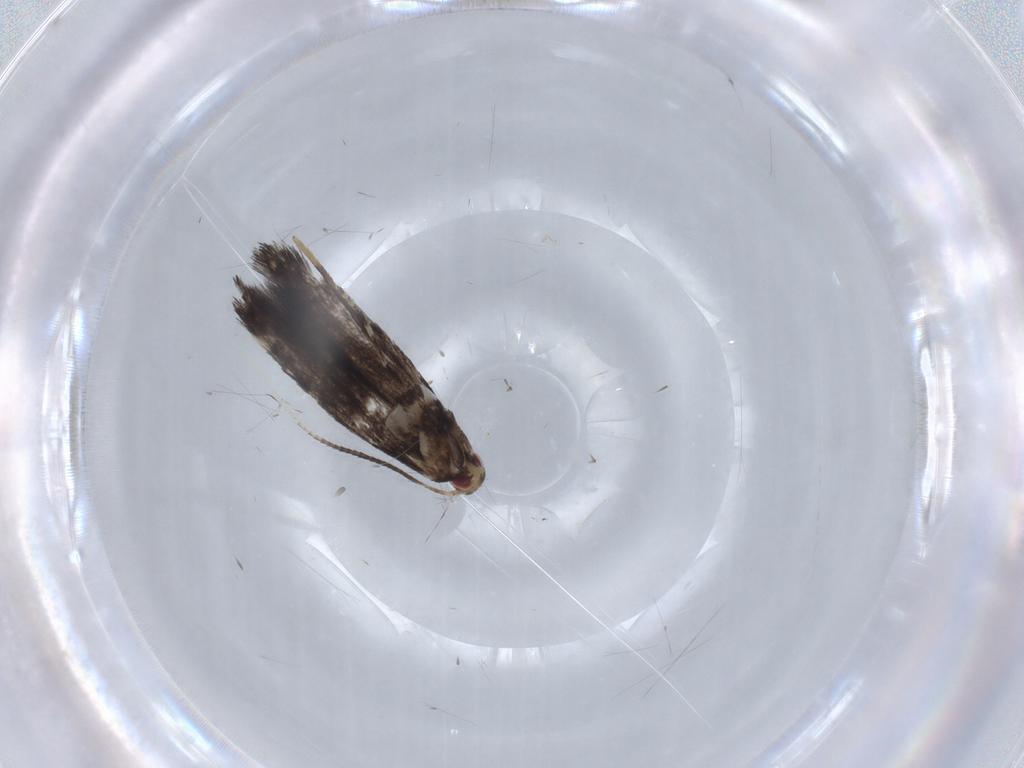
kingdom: Animalia
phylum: Arthropoda
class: Insecta
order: Lepidoptera
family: Gracillariidae
